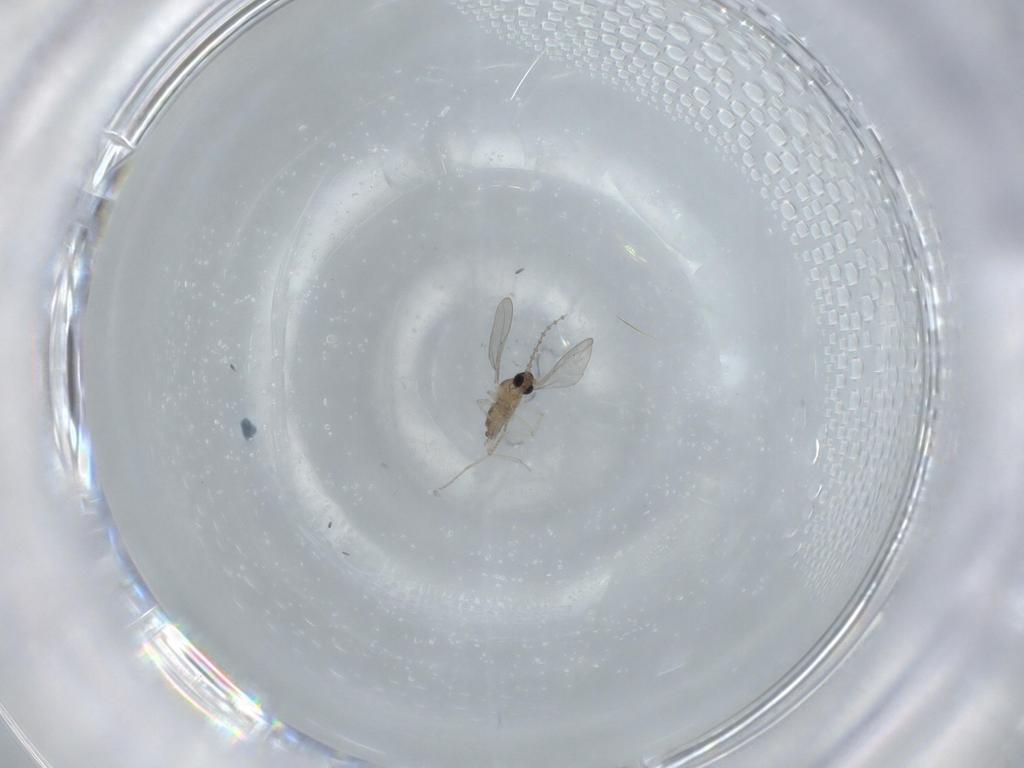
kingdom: Animalia
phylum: Arthropoda
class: Insecta
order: Diptera
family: Cecidomyiidae
